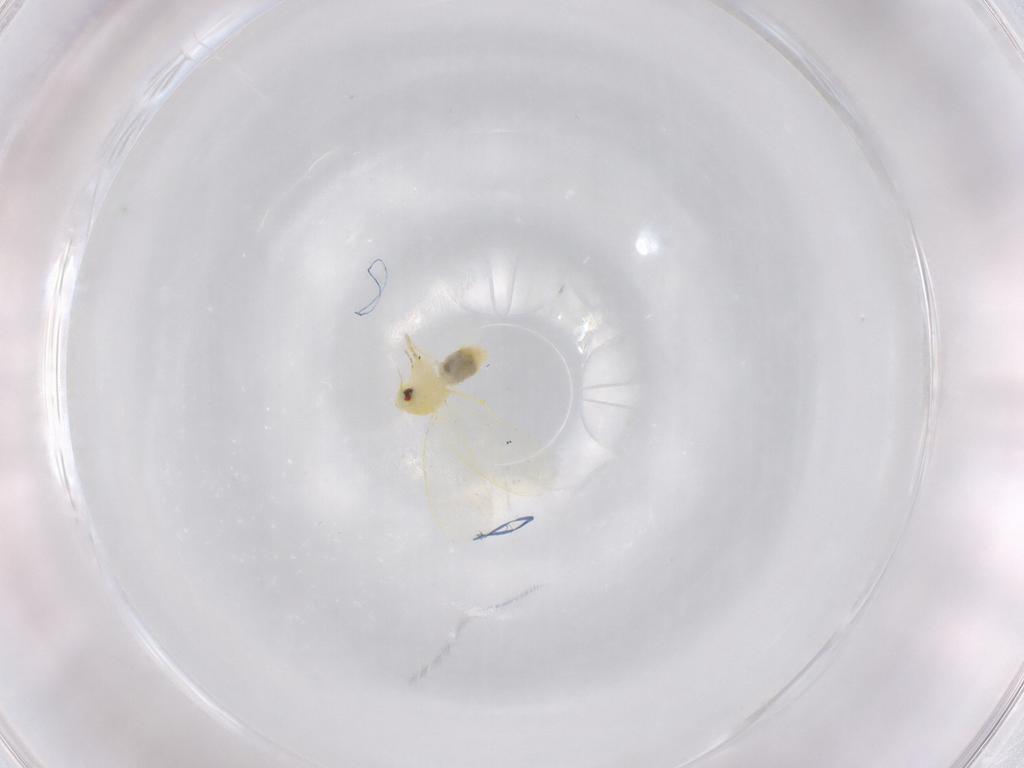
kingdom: Animalia
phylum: Arthropoda
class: Insecta
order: Hemiptera
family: Aleyrodidae
